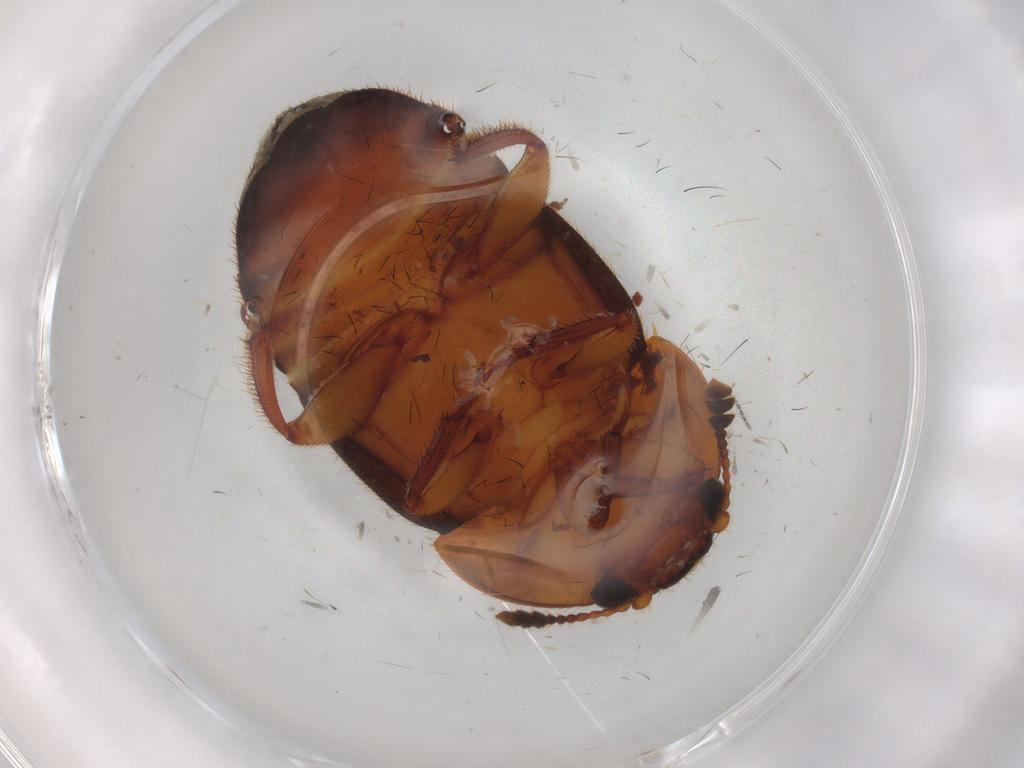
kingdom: Animalia
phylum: Arthropoda
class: Insecta
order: Coleoptera
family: Nitidulidae
